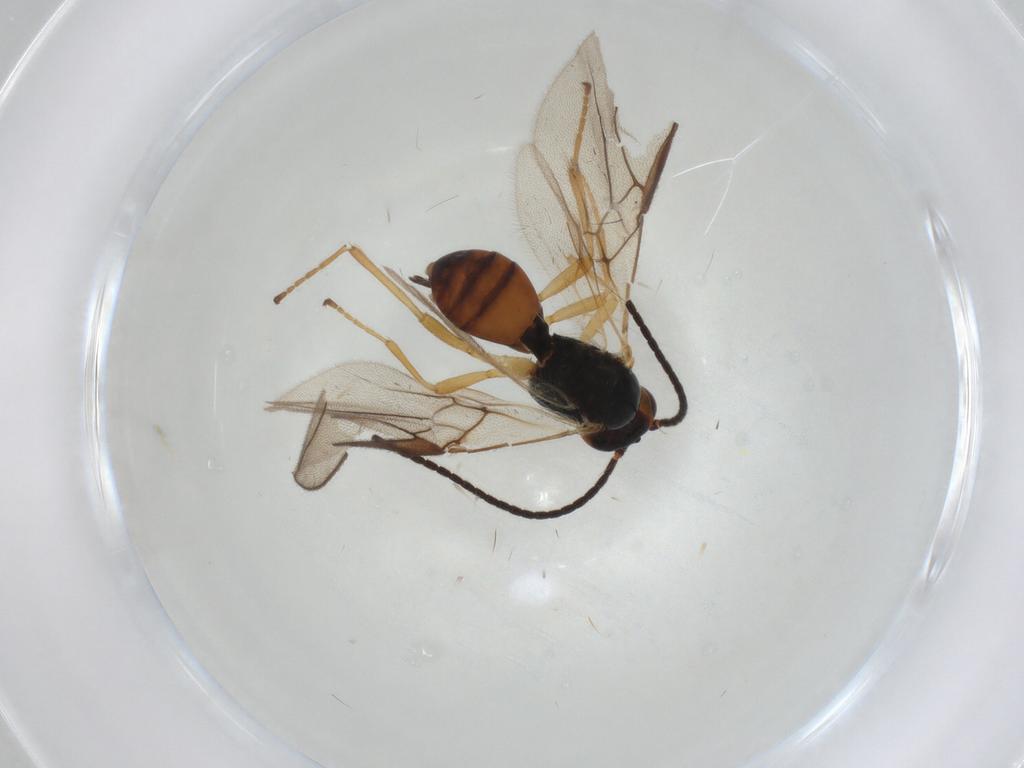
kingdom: Animalia
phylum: Arthropoda
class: Insecta
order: Hymenoptera
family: Braconidae
